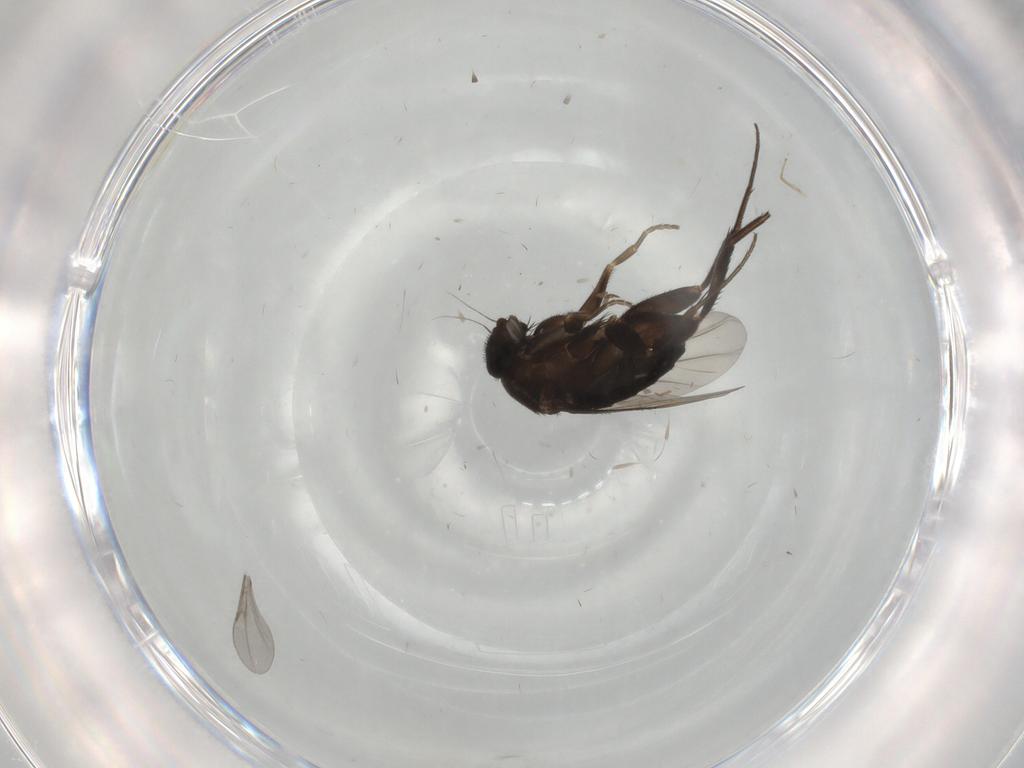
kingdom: Animalia
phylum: Arthropoda
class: Insecta
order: Diptera
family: Phoridae
